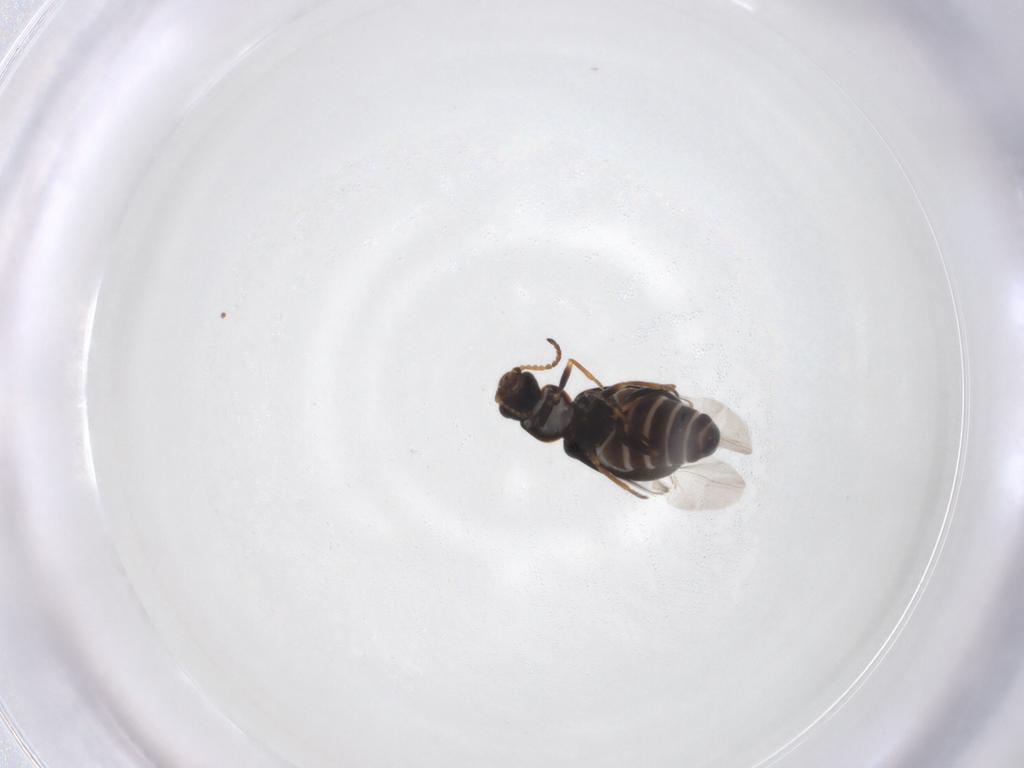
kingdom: Animalia
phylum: Arthropoda
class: Insecta
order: Coleoptera
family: Melyridae
